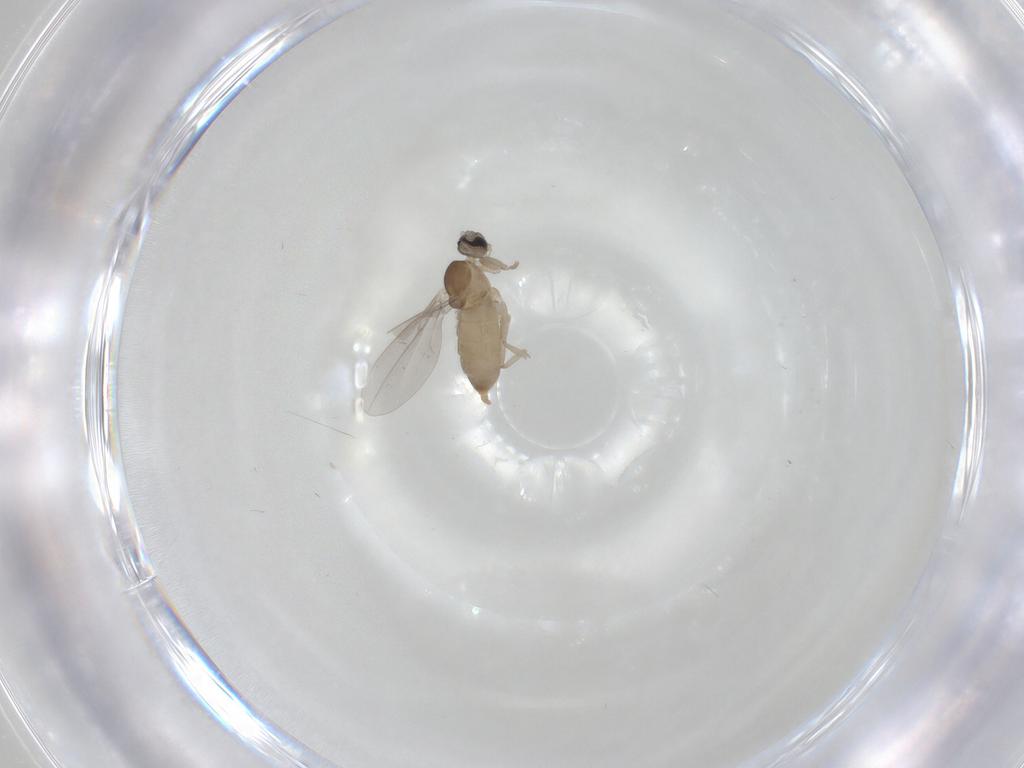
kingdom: Animalia
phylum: Arthropoda
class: Insecta
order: Diptera
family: Cecidomyiidae
